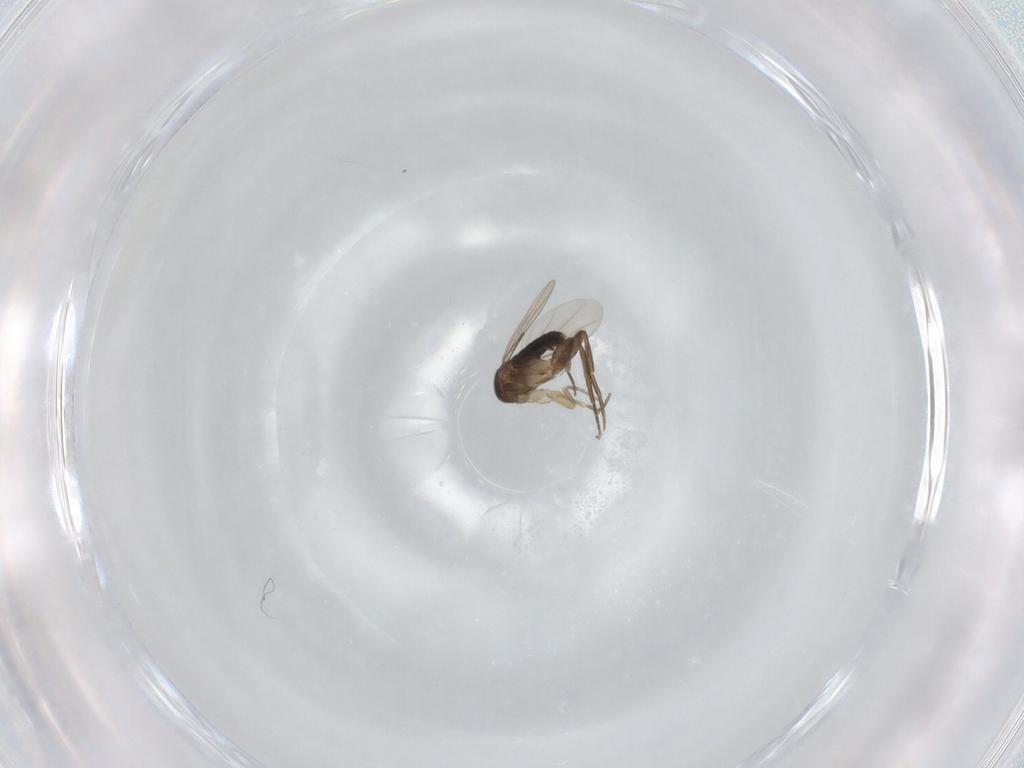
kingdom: Animalia
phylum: Arthropoda
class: Insecta
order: Diptera
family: Phoridae
